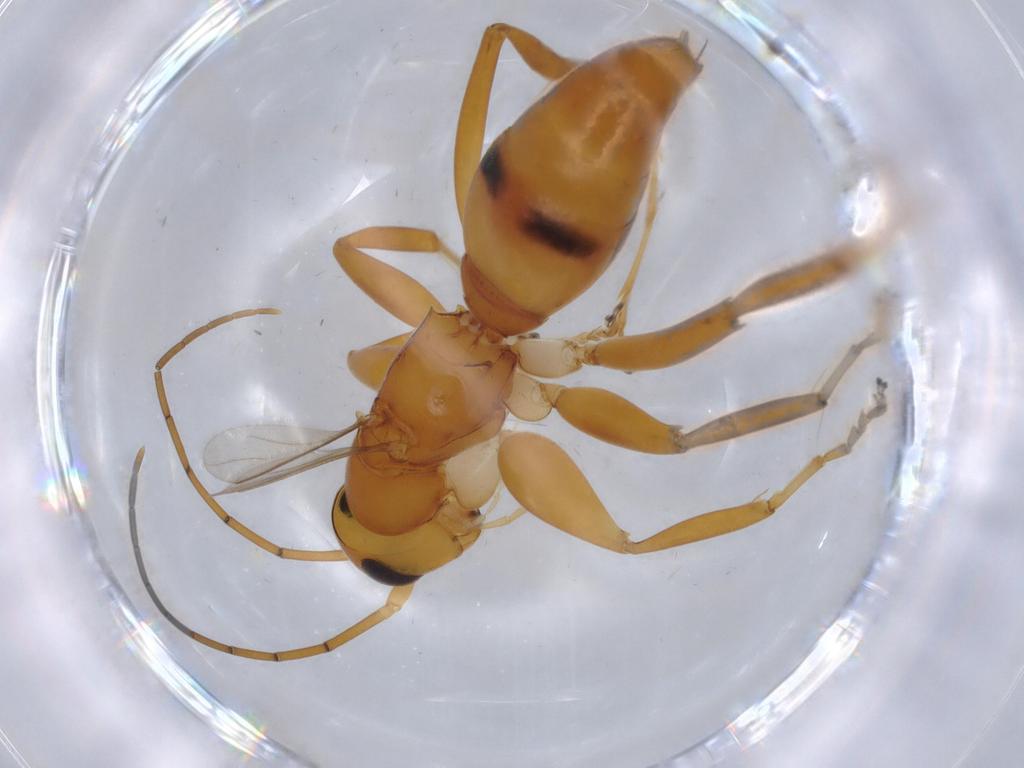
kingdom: Animalia
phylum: Arthropoda
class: Insecta
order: Hymenoptera
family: Rhopalosomatidae
